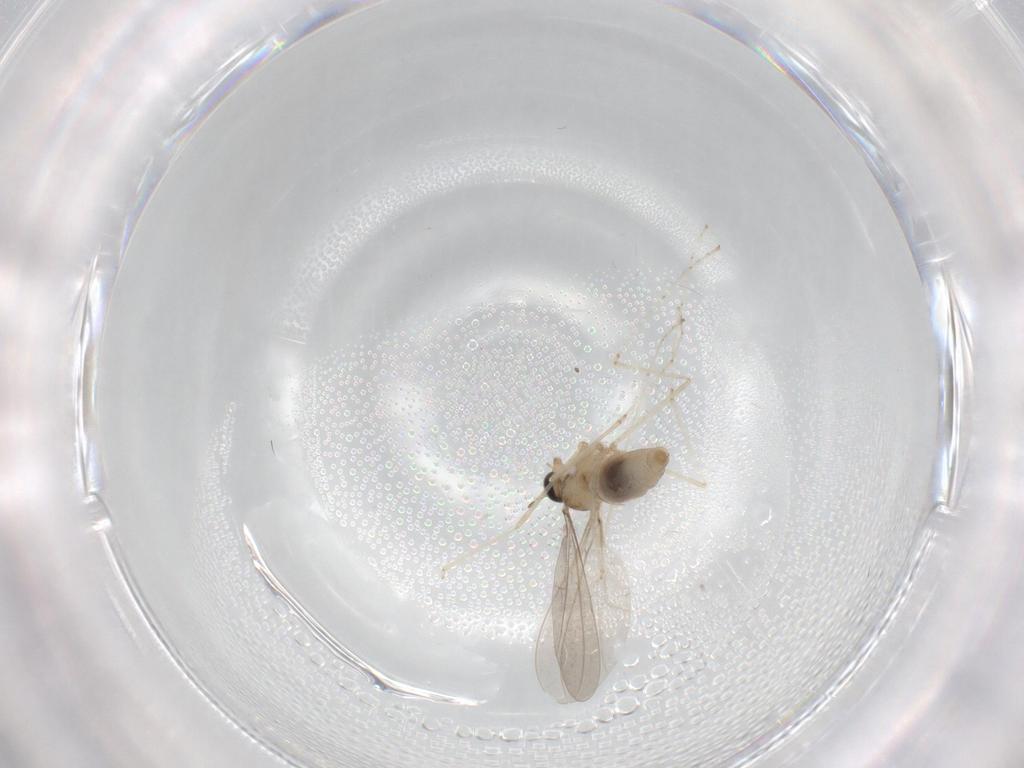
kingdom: Animalia
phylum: Arthropoda
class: Insecta
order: Diptera
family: Cecidomyiidae
